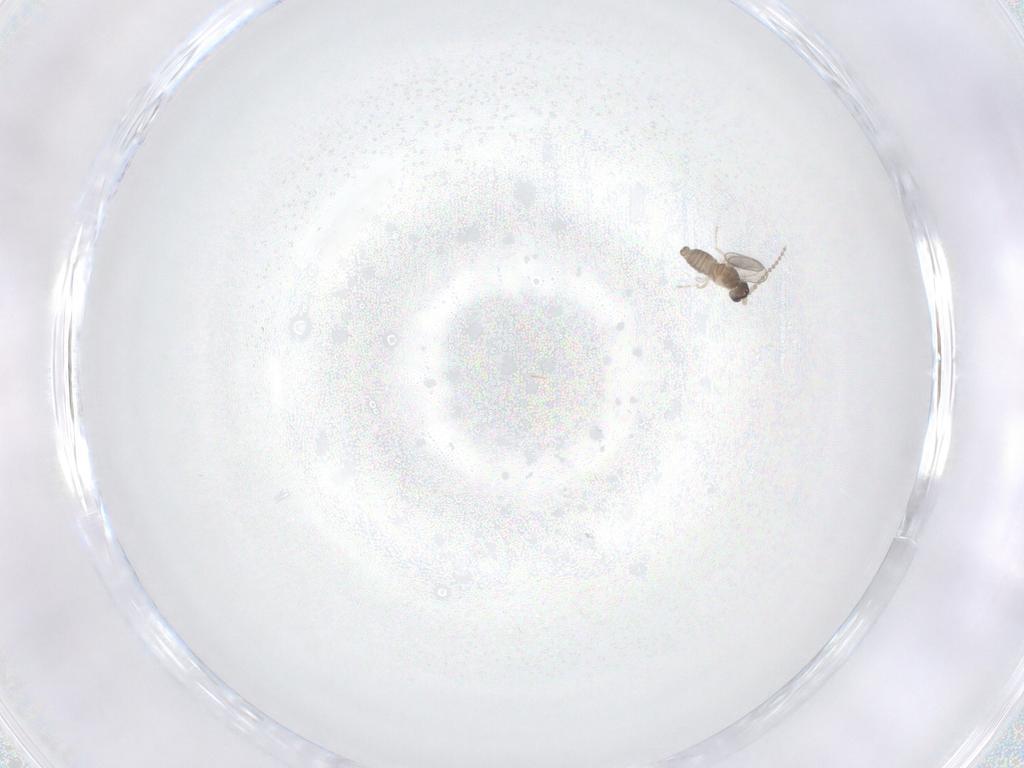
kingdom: Animalia
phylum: Arthropoda
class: Insecta
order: Diptera
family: Cecidomyiidae
